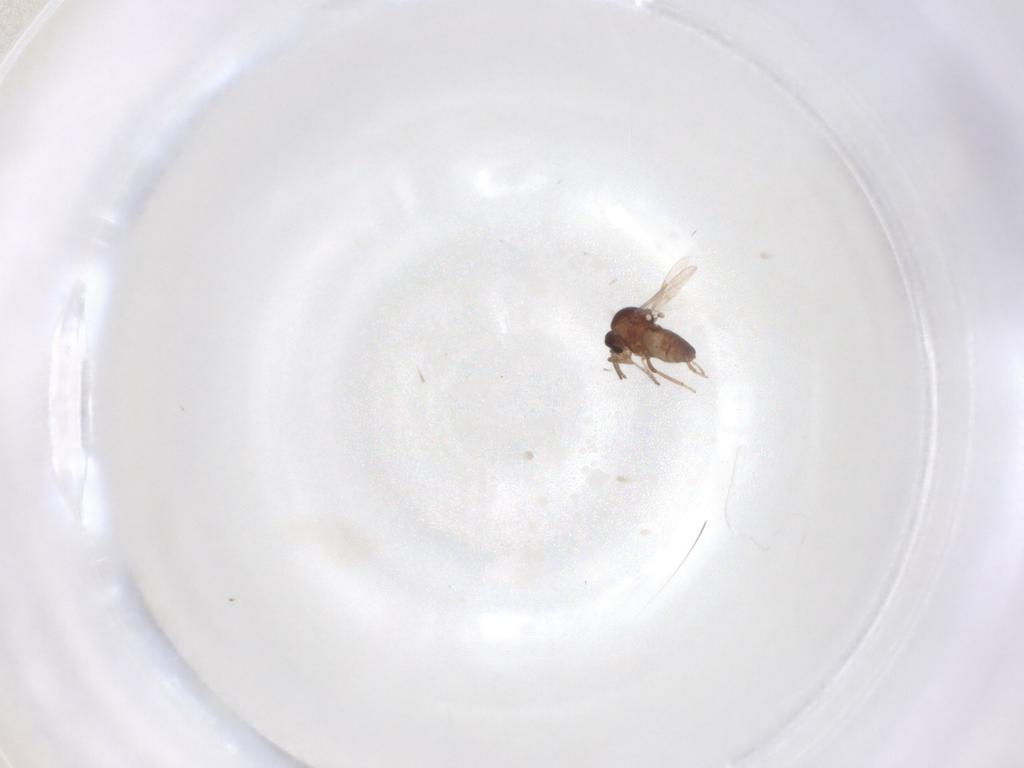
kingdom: Animalia
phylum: Arthropoda
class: Insecta
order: Diptera
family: Ceratopogonidae
